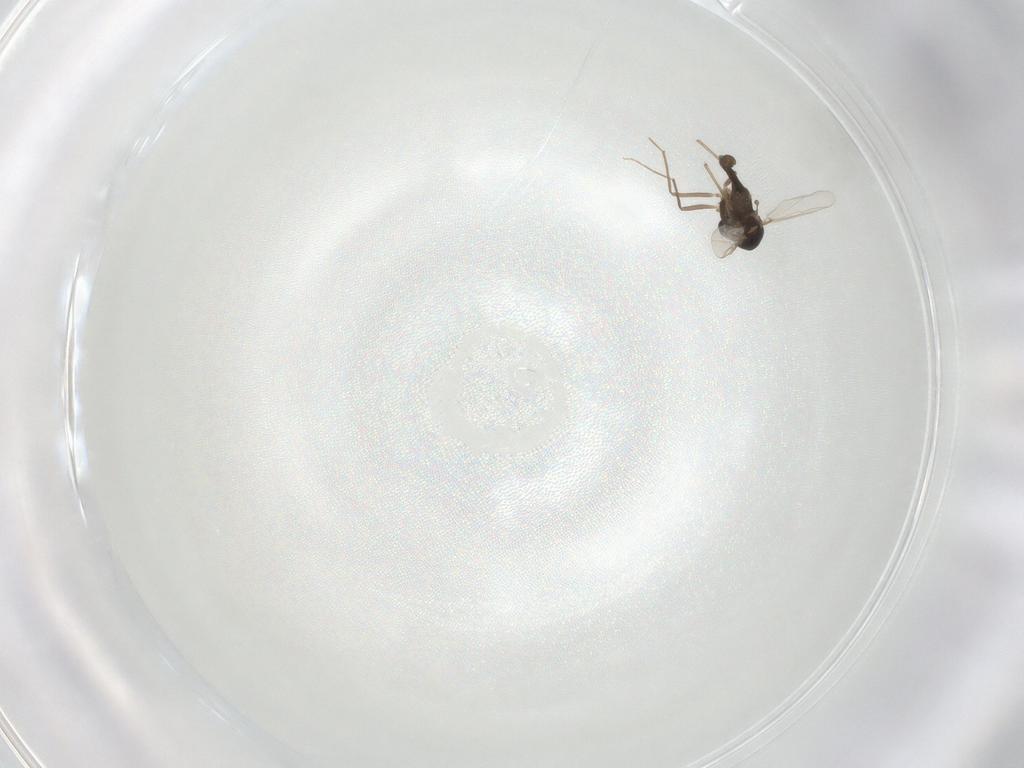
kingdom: Animalia
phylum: Arthropoda
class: Insecta
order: Diptera
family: Chironomidae
